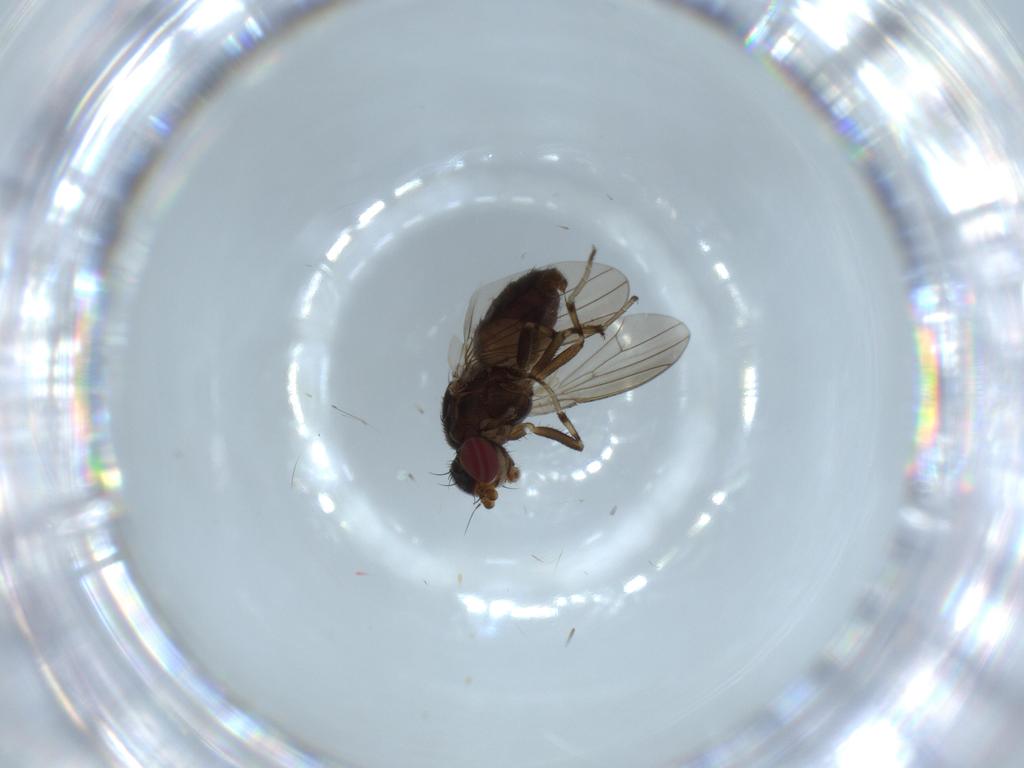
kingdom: Animalia
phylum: Arthropoda
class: Insecta
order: Diptera
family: Heleomyzidae
